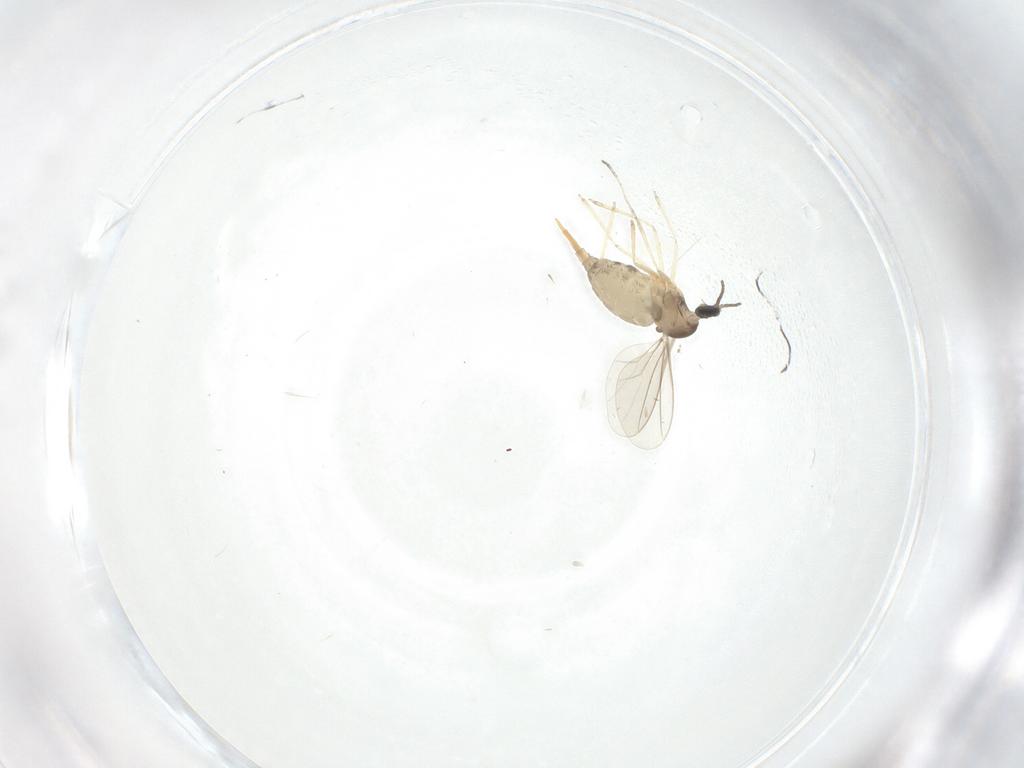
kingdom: Animalia
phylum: Arthropoda
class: Insecta
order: Diptera
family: Cecidomyiidae
